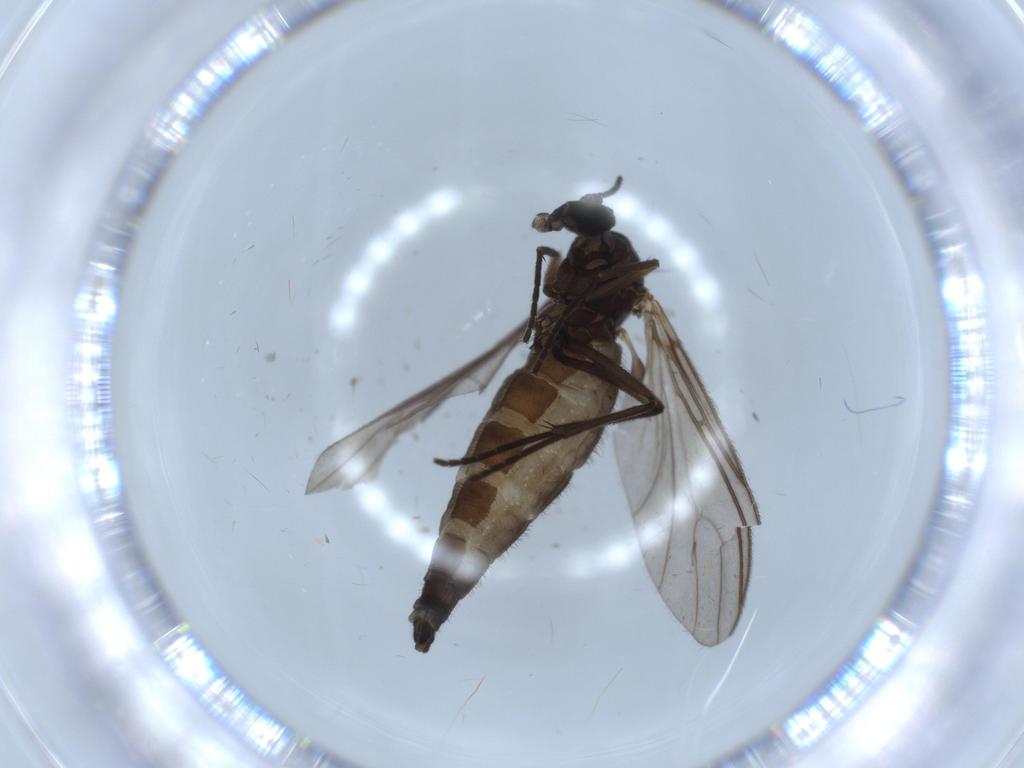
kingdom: Animalia
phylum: Arthropoda
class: Insecta
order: Diptera
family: Sciaridae
